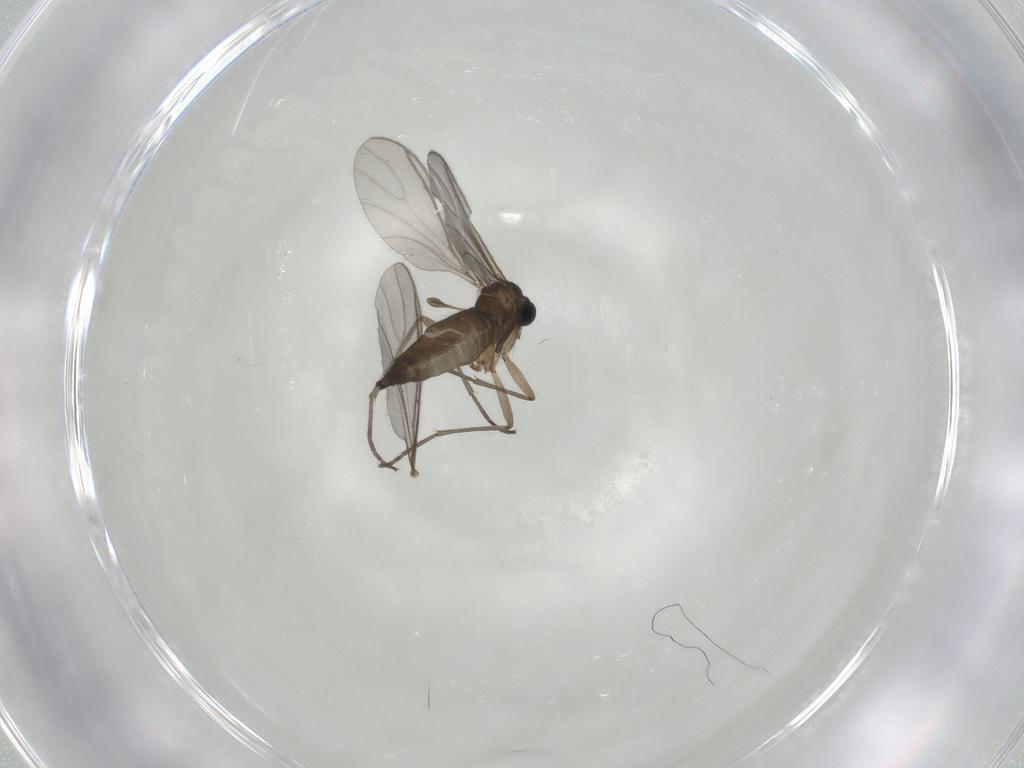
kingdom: Animalia
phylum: Arthropoda
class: Insecta
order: Diptera
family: Sciaridae
